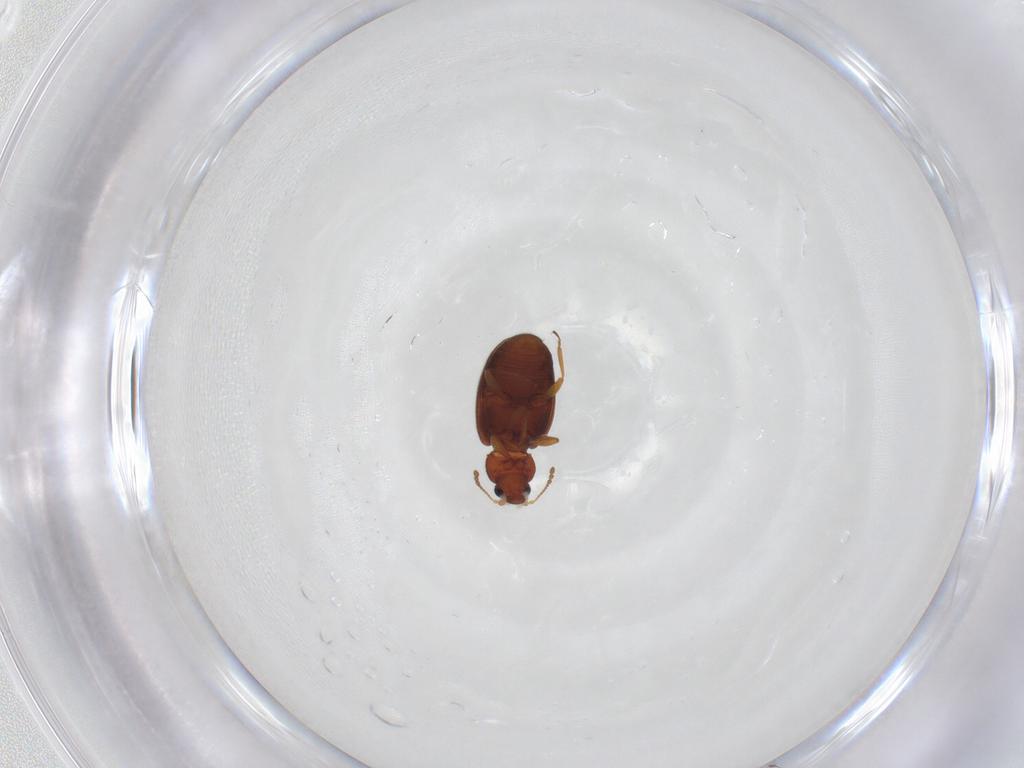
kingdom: Animalia
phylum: Arthropoda
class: Insecta
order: Coleoptera
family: Latridiidae
